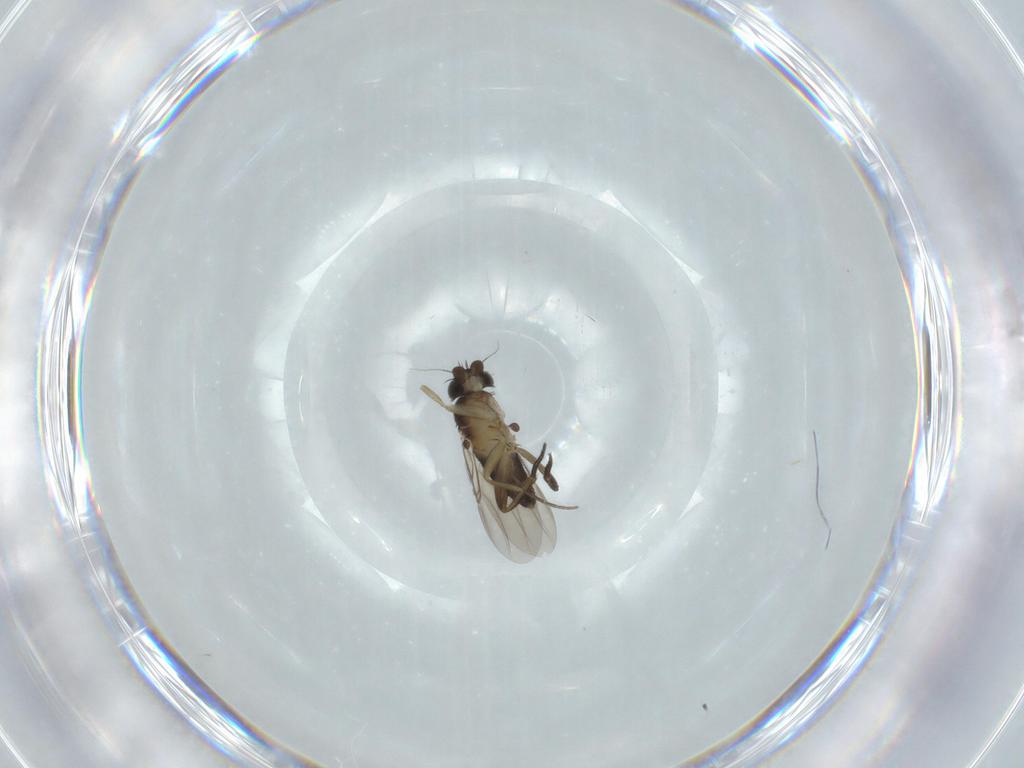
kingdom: Animalia
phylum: Arthropoda
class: Insecta
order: Diptera
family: Phoridae
